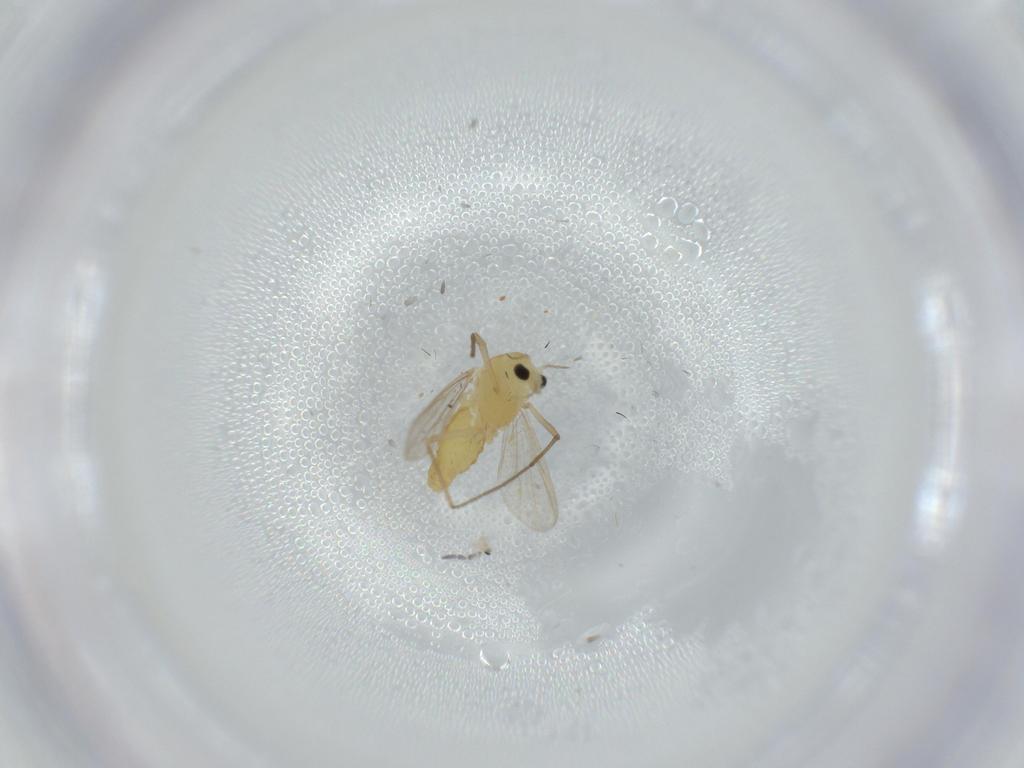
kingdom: Animalia
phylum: Arthropoda
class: Insecta
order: Diptera
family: Chironomidae
